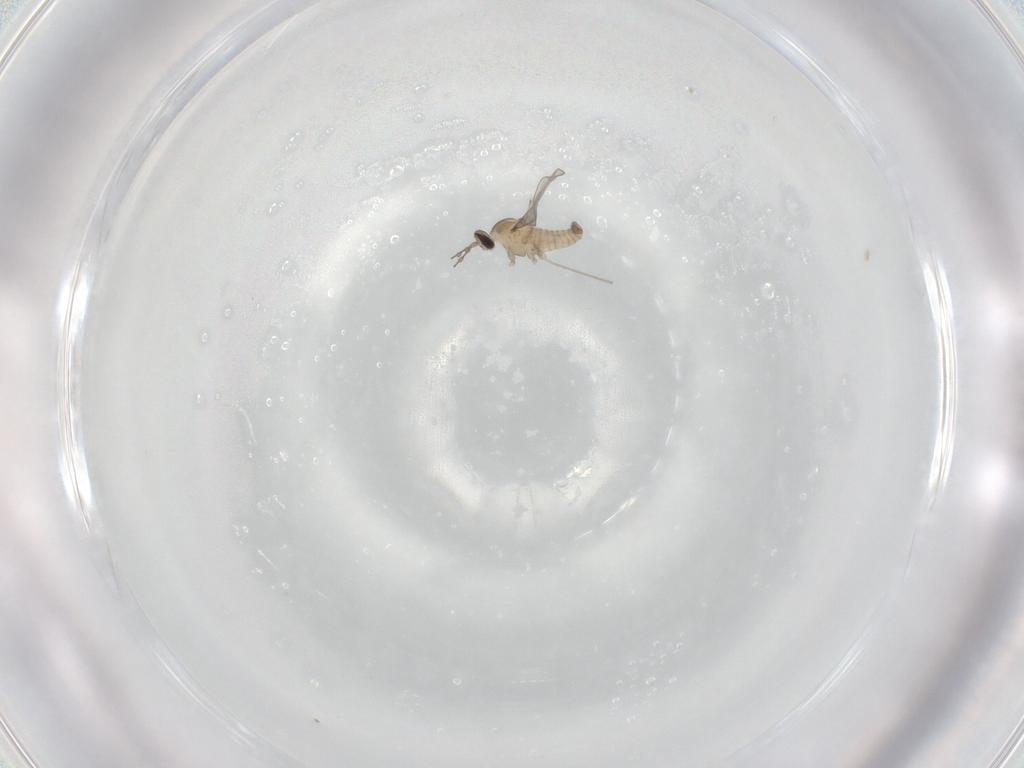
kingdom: Animalia
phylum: Arthropoda
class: Insecta
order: Diptera
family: Cecidomyiidae
